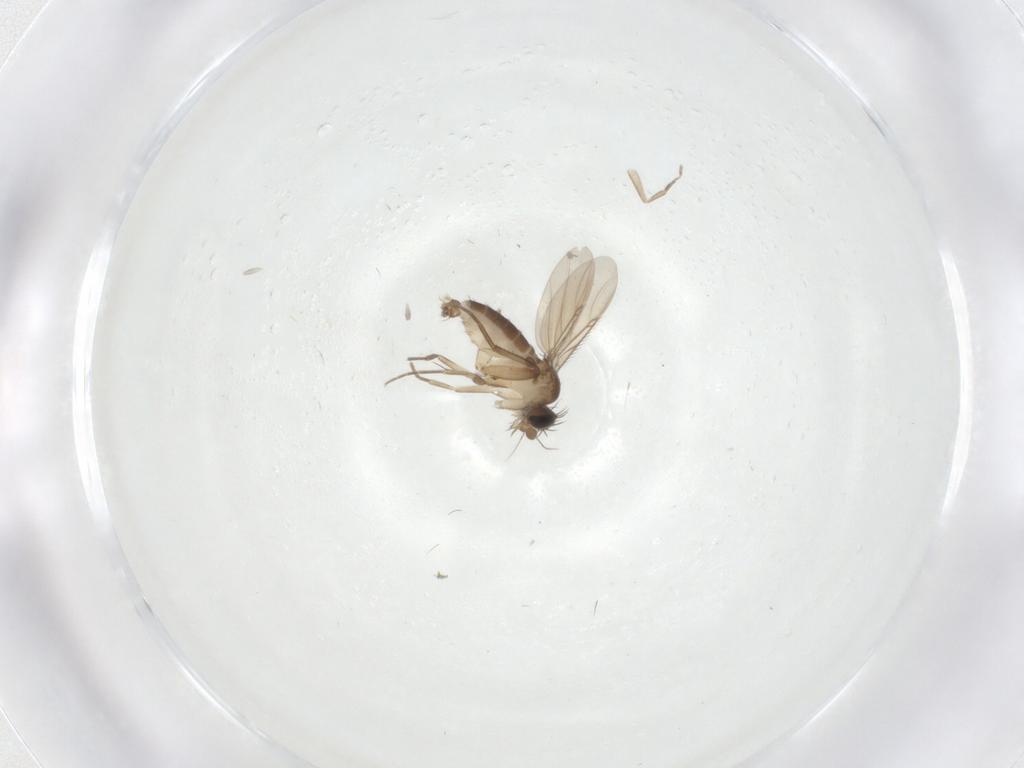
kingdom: Animalia
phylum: Arthropoda
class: Insecta
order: Diptera
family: Phoridae
